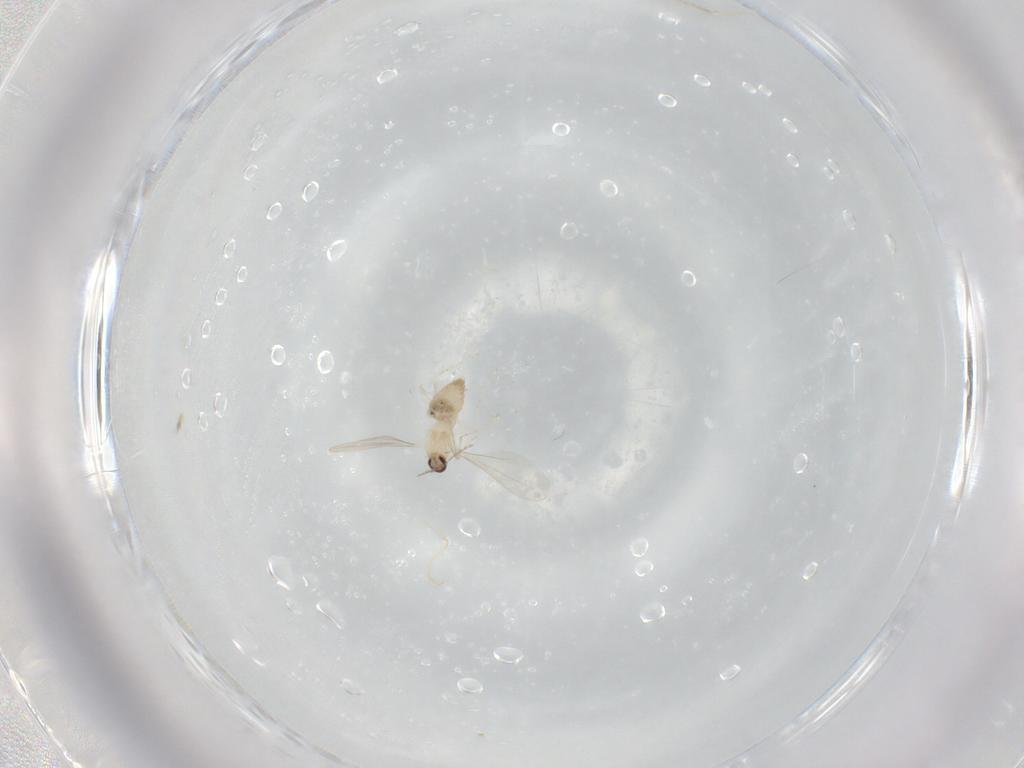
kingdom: Animalia
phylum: Arthropoda
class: Insecta
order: Diptera
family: Cecidomyiidae
